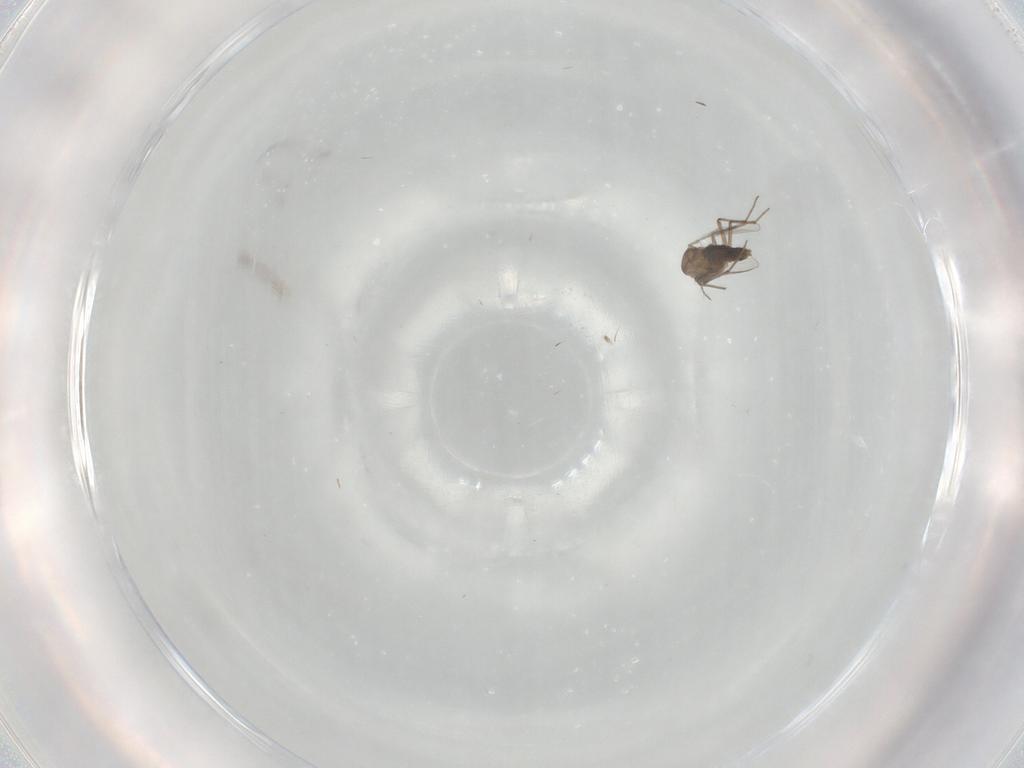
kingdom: Animalia
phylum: Arthropoda
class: Insecta
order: Diptera
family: Chironomidae
